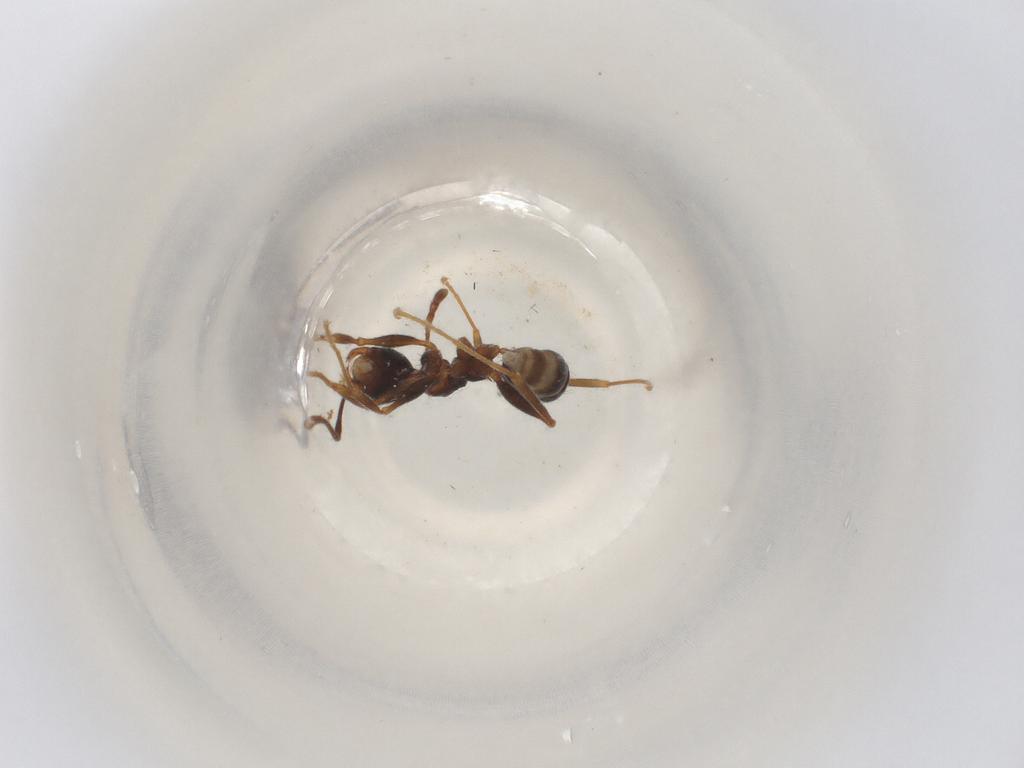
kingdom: Animalia
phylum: Arthropoda
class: Insecta
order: Hymenoptera
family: Formicidae
